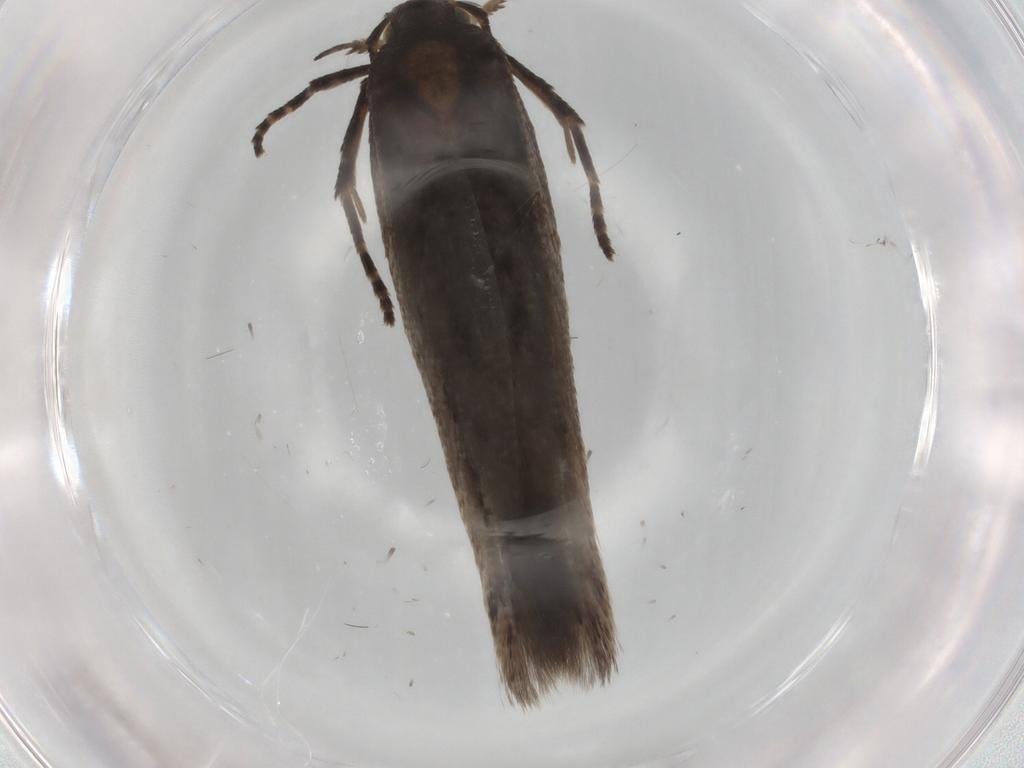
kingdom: Animalia
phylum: Arthropoda
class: Insecta
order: Lepidoptera
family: Gelechiidae
